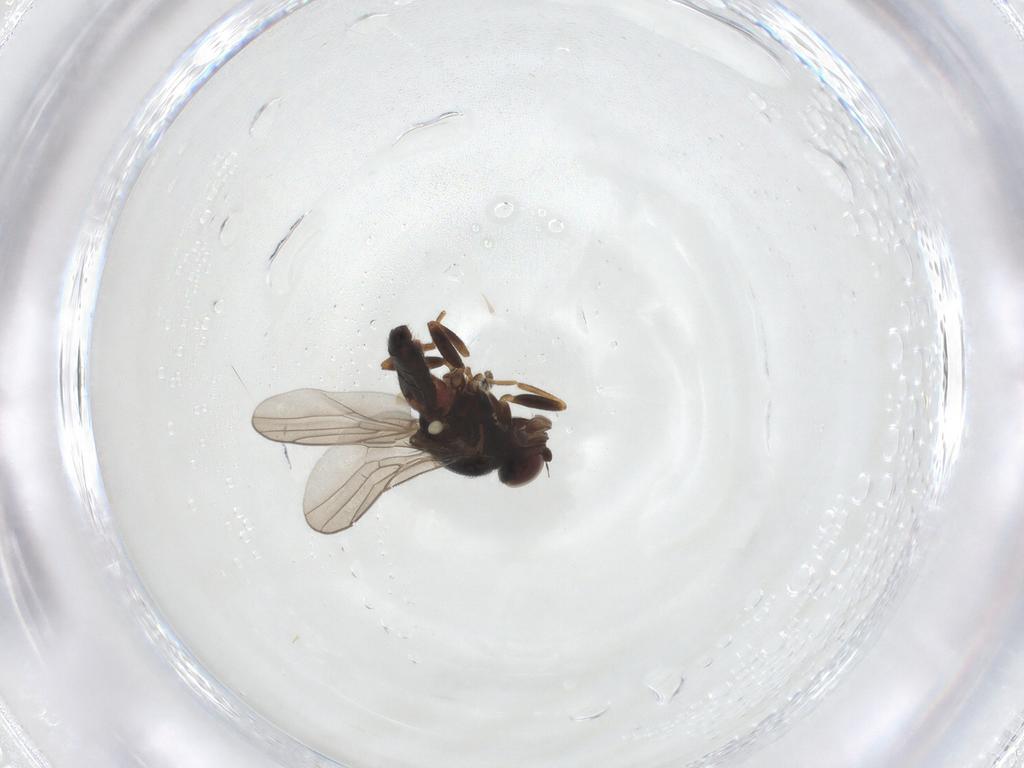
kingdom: Animalia
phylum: Arthropoda
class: Insecta
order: Diptera
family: Chloropidae
